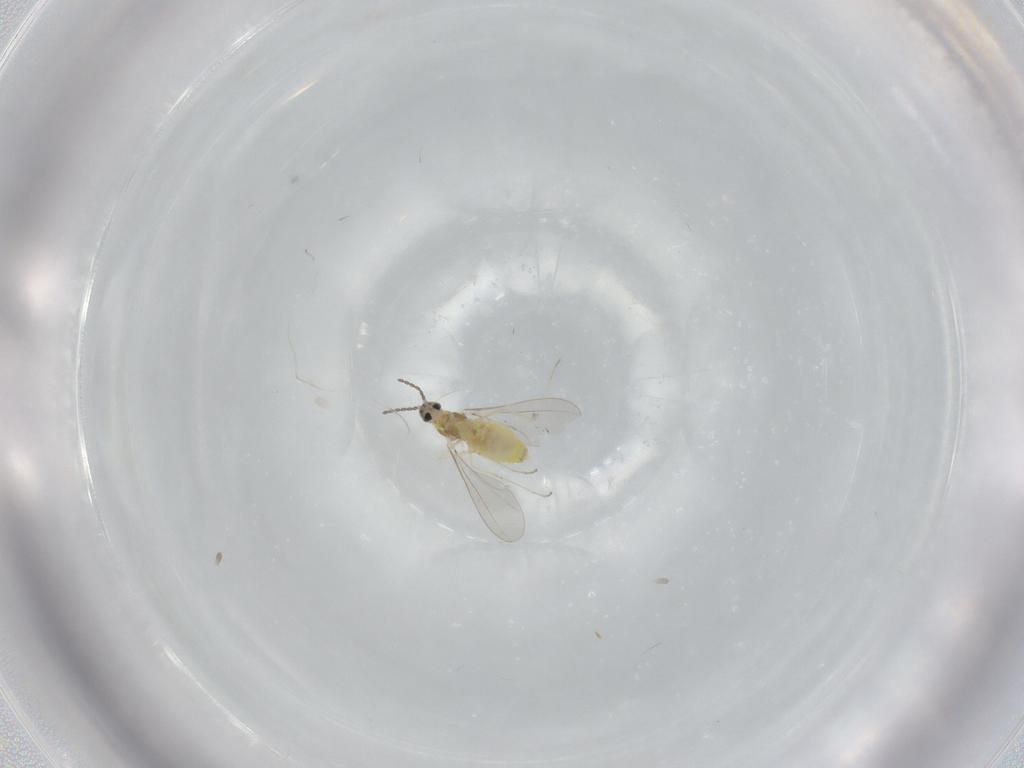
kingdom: Animalia
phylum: Arthropoda
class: Insecta
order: Diptera
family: Cecidomyiidae
